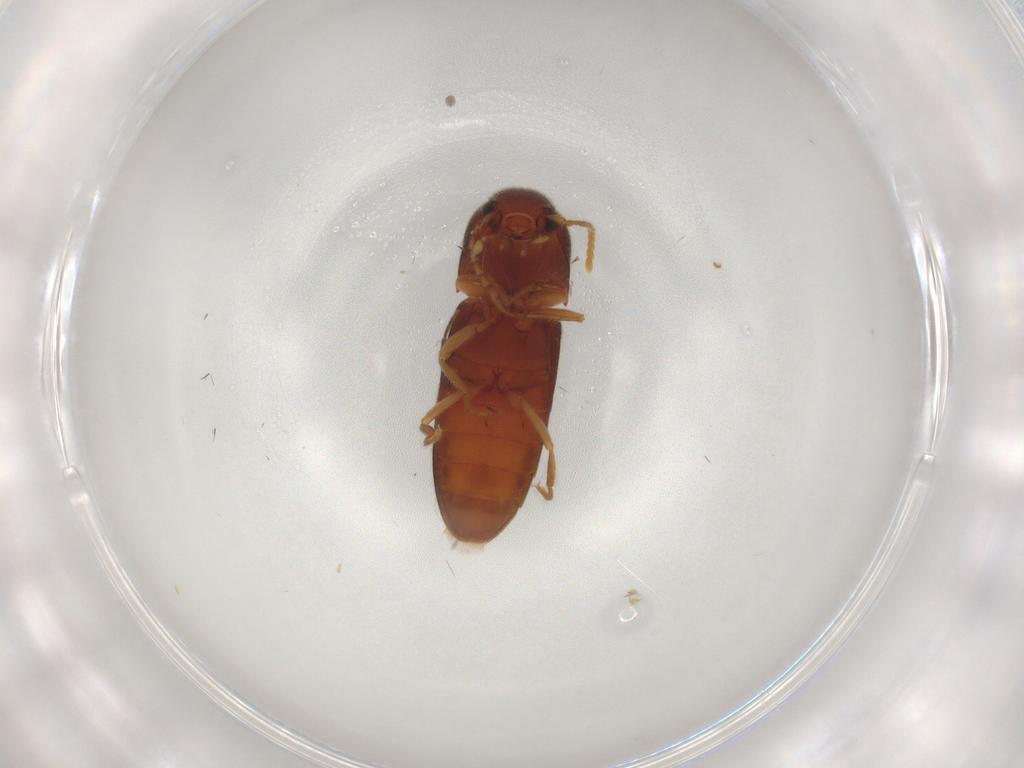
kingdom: Animalia
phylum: Arthropoda
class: Insecta
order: Coleoptera
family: Elateridae
